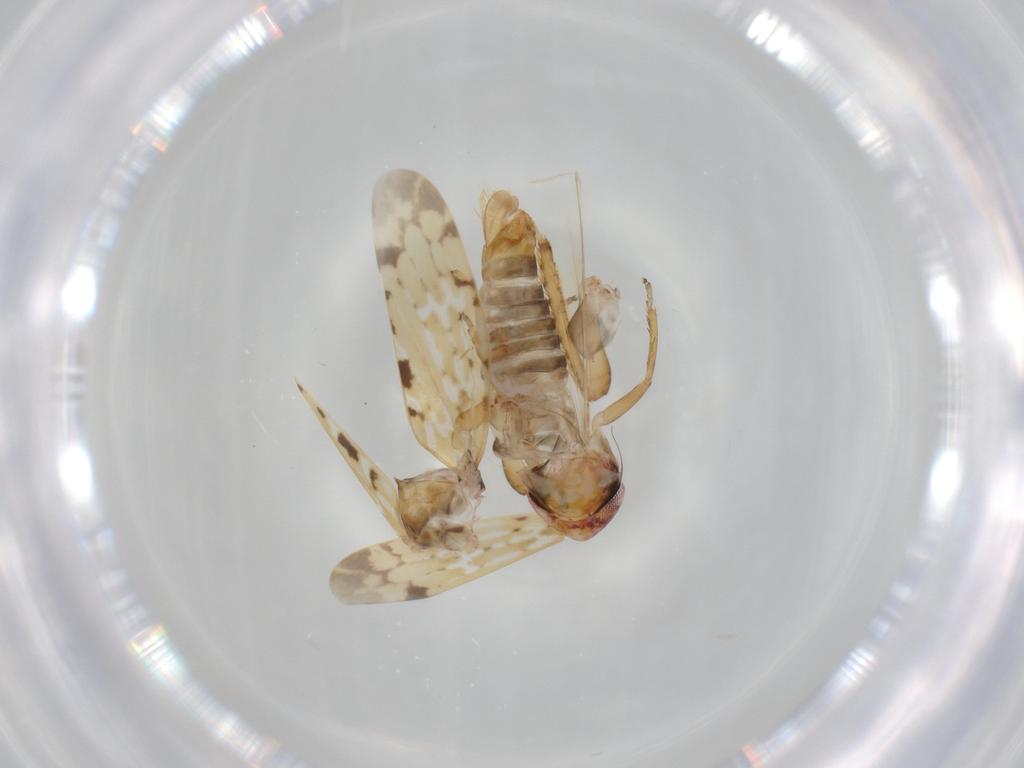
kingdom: Animalia
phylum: Arthropoda
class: Insecta
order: Hemiptera
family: Cicadellidae
